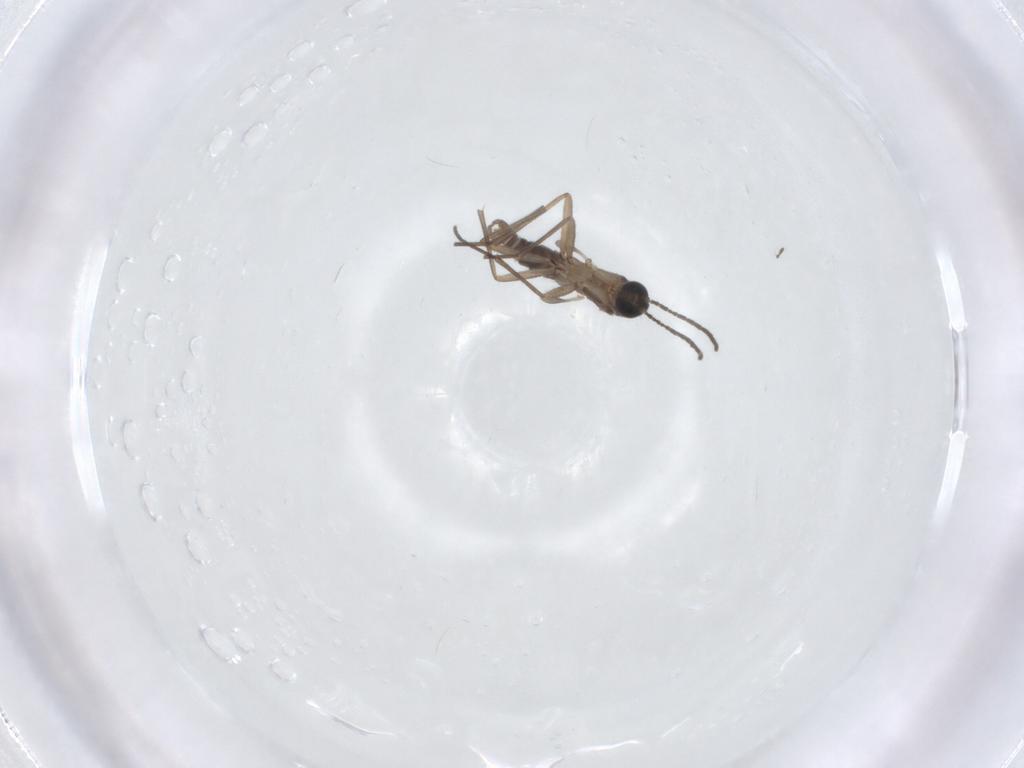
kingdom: Animalia
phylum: Arthropoda
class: Insecta
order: Diptera
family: Sciaridae
